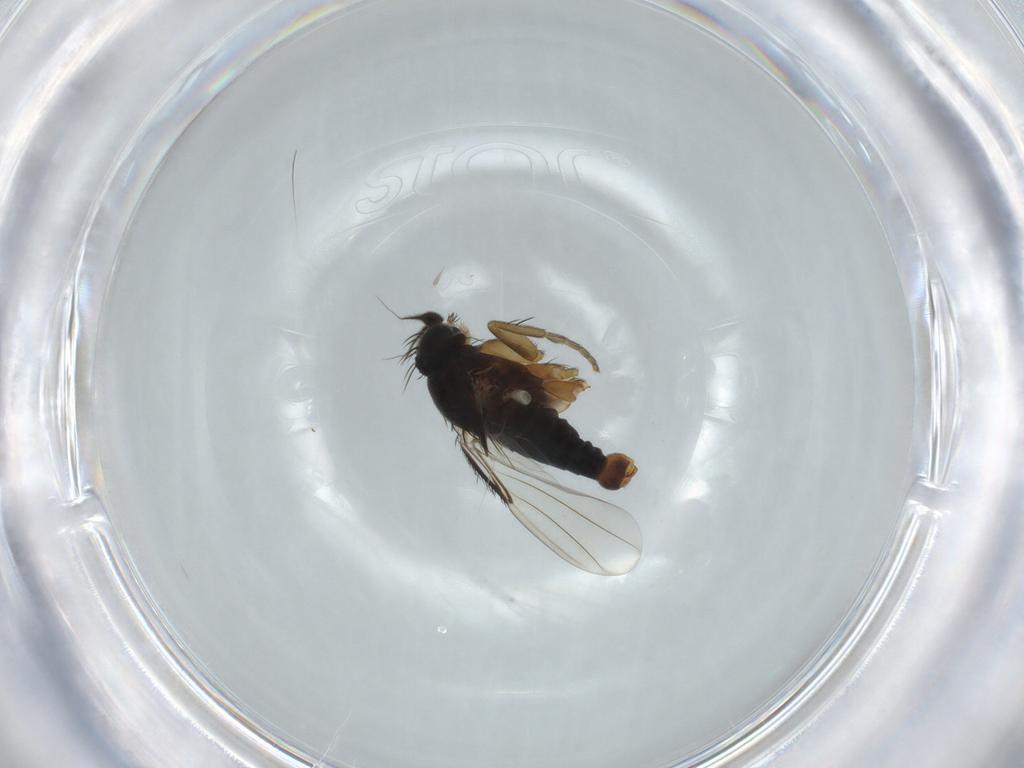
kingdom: Animalia
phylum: Arthropoda
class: Insecta
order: Diptera
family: Phoridae
